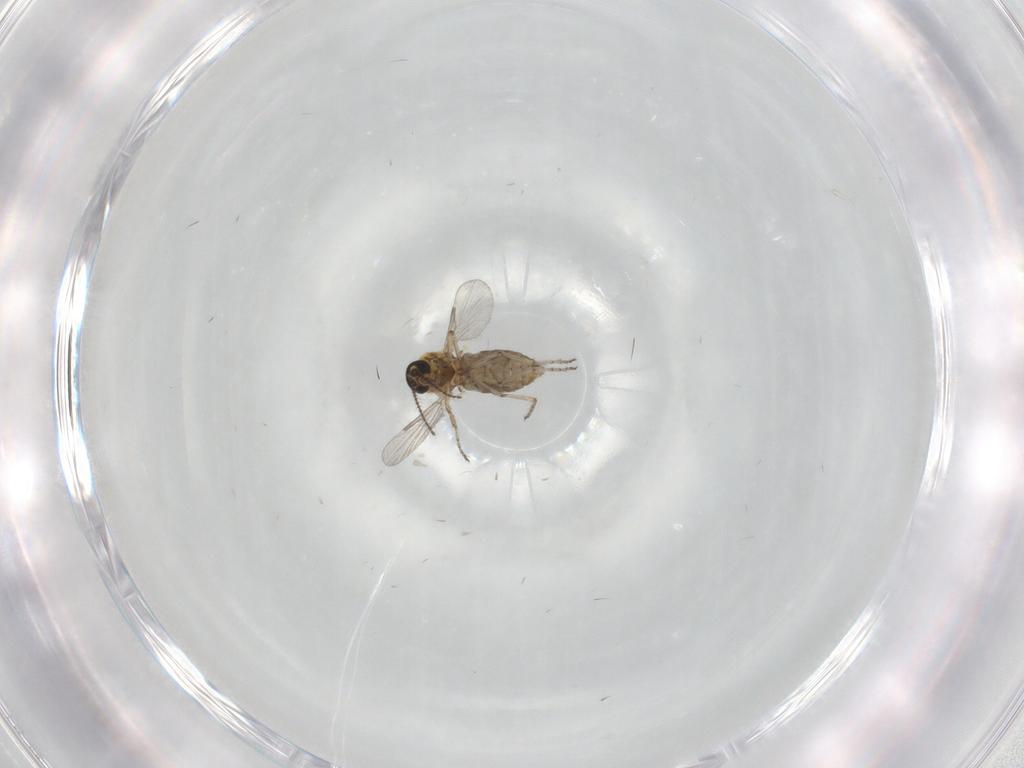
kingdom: Animalia
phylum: Arthropoda
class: Insecta
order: Diptera
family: Ceratopogonidae
